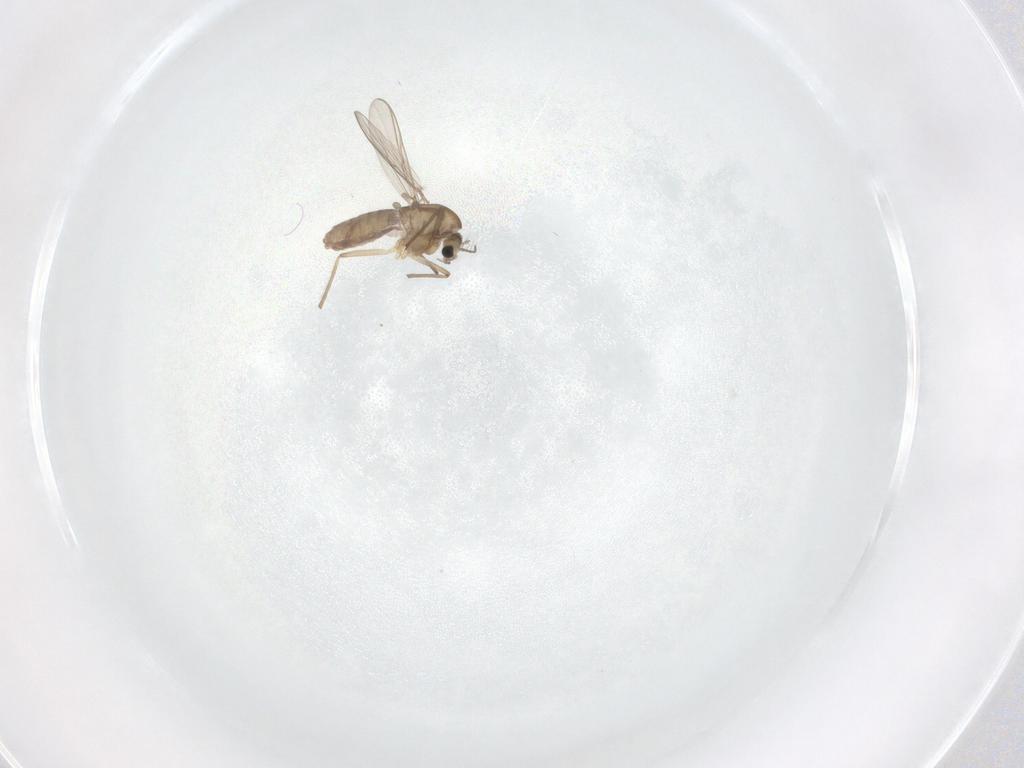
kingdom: Animalia
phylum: Arthropoda
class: Insecta
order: Diptera
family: Chironomidae
